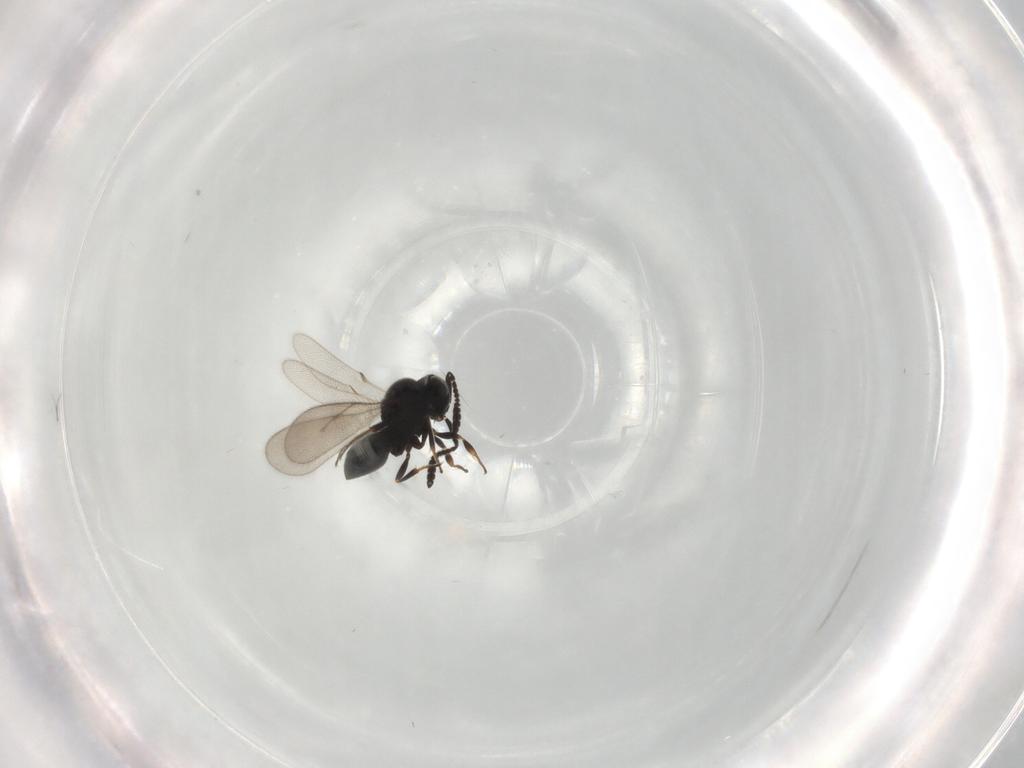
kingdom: Animalia
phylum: Arthropoda
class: Insecta
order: Hymenoptera
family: Scelionidae
